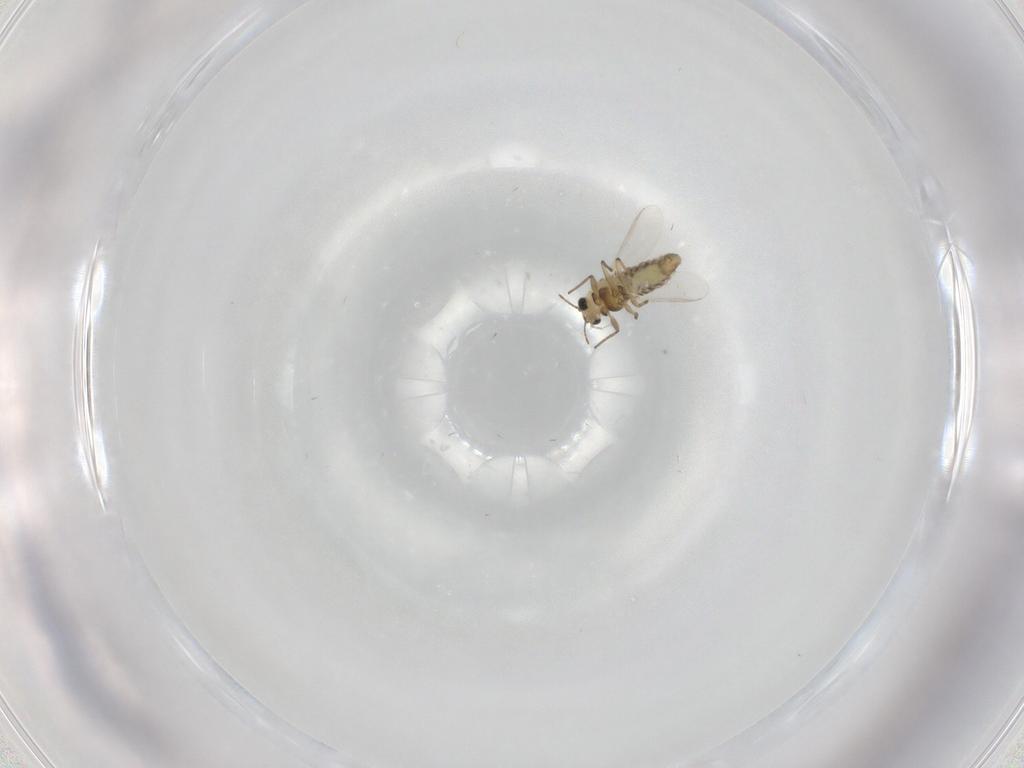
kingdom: Animalia
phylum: Arthropoda
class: Insecta
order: Diptera
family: Chironomidae
